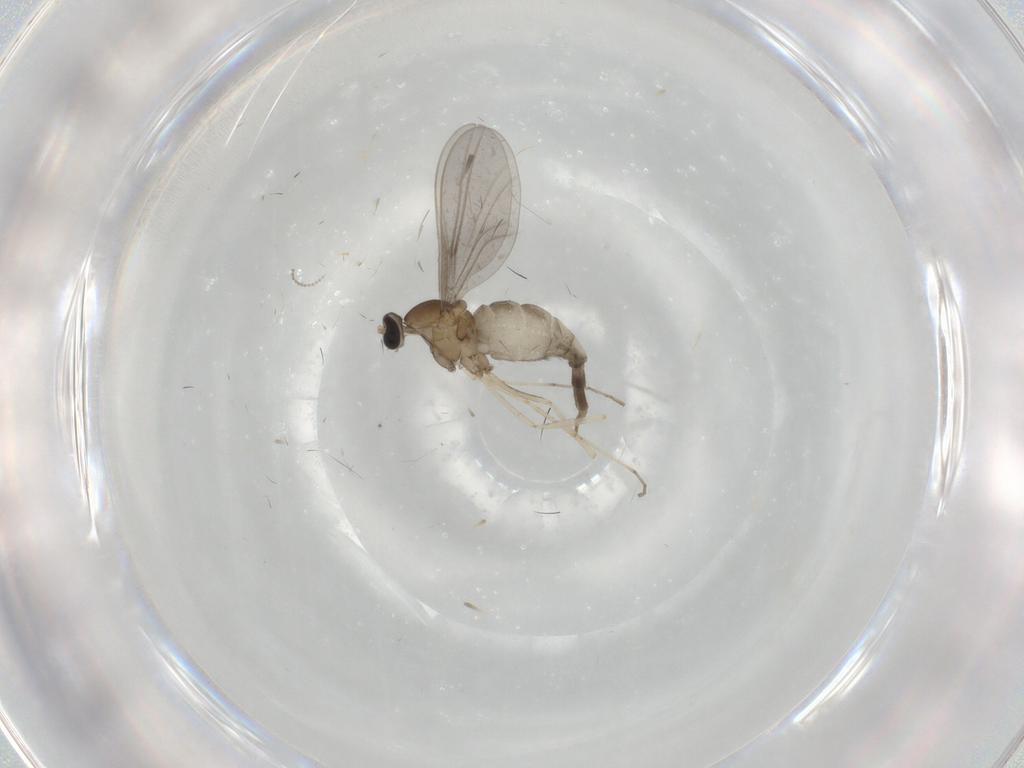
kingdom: Animalia
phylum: Arthropoda
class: Insecta
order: Diptera
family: Cecidomyiidae
